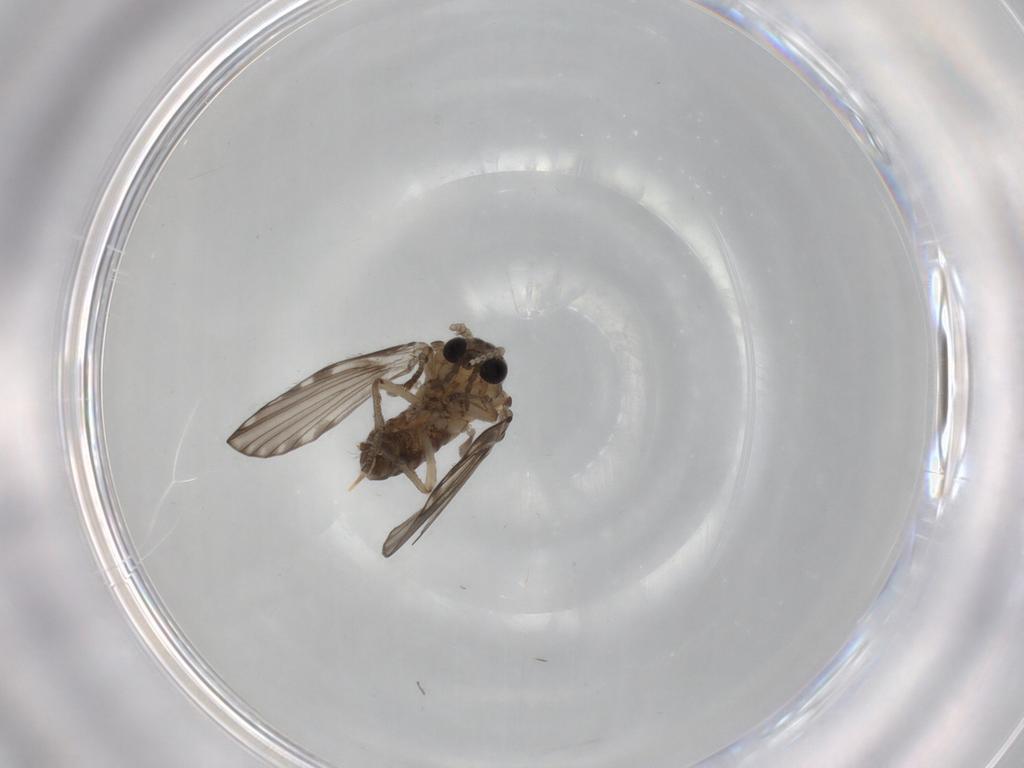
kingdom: Animalia
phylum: Arthropoda
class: Insecta
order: Diptera
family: Psychodidae
